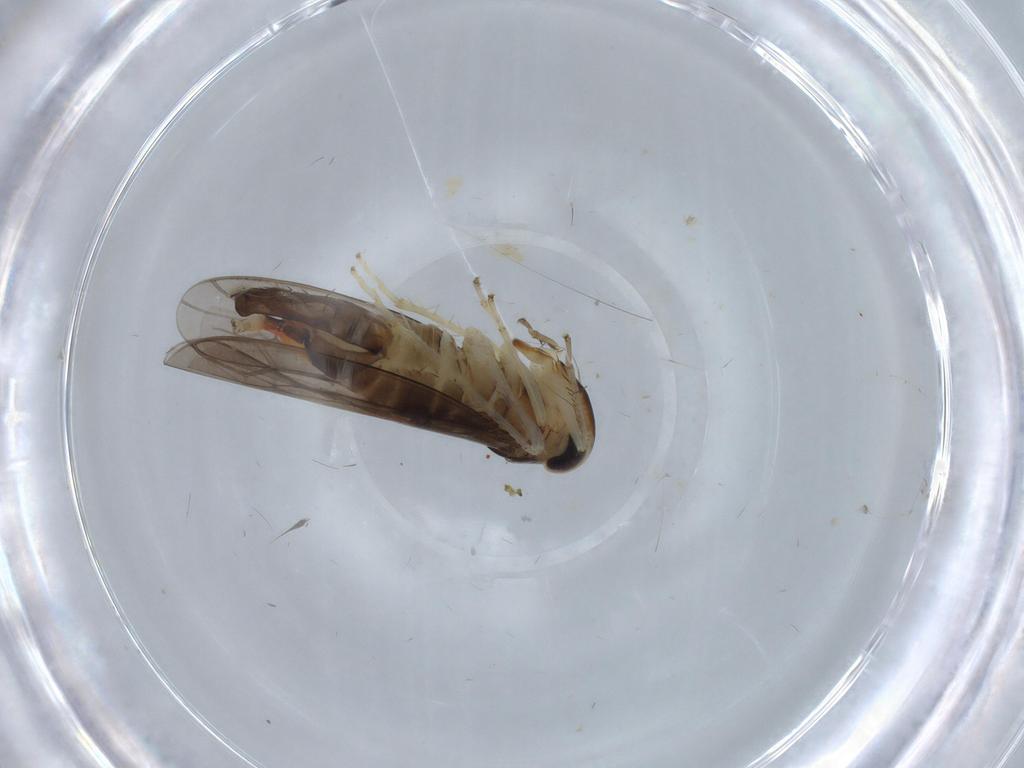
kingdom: Animalia
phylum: Arthropoda
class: Insecta
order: Hemiptera
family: Cicadellidae
